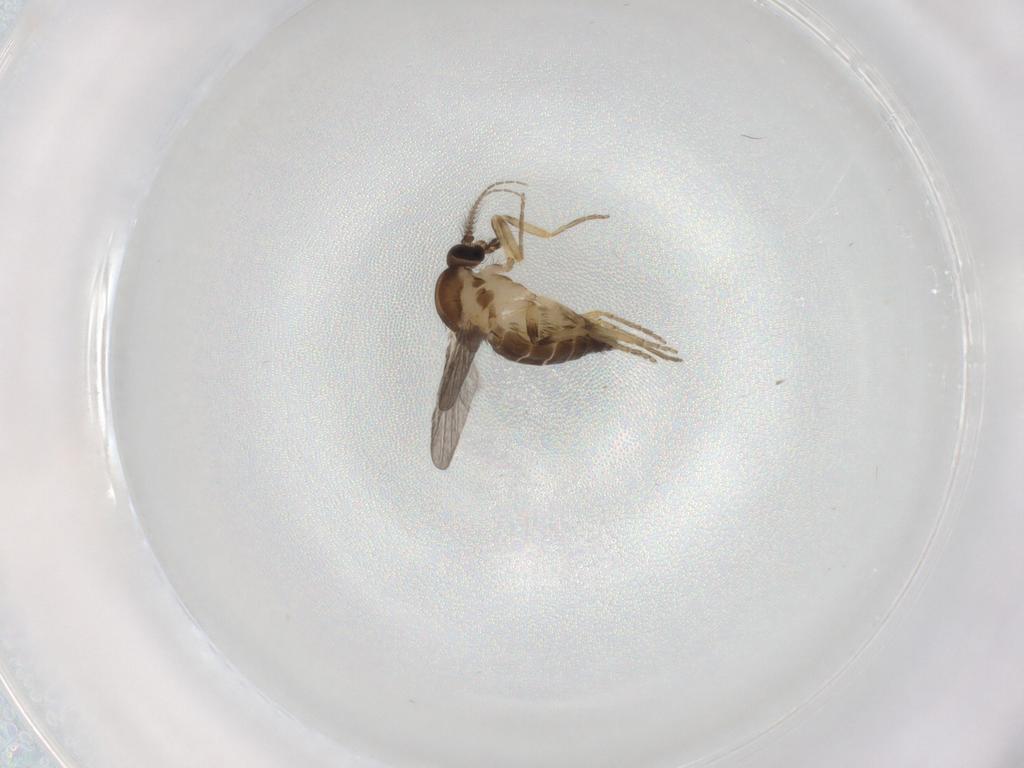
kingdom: Animalia
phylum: Arthropoda
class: Insecta
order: Diptera
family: Ceratopogonidae
